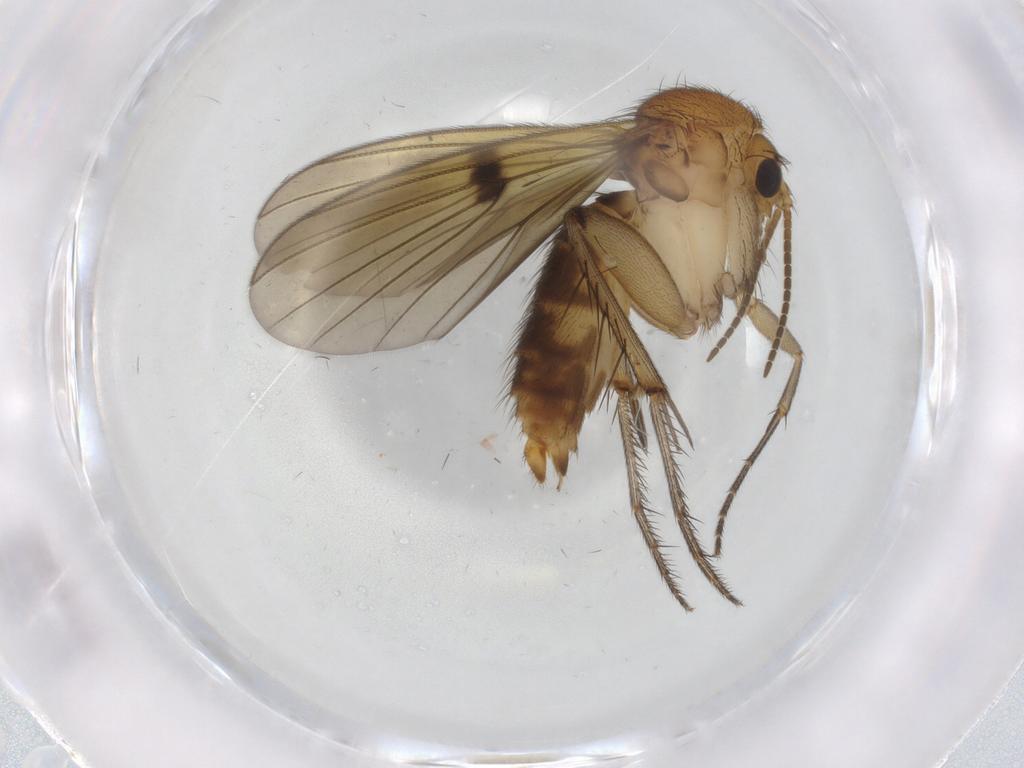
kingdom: Animalia
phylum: Arthropoda
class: Insecta
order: Diptera
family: Mycetophilidae
